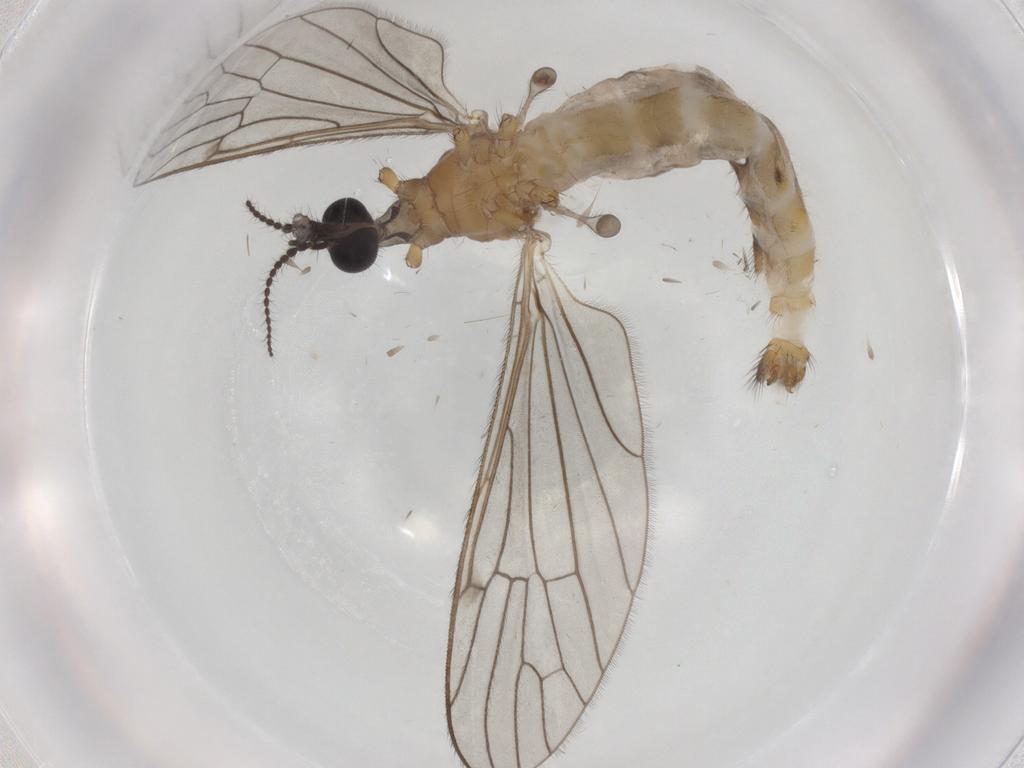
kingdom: Animalia
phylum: Arthropoda
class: Insecta
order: Diptera
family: Limoniidae
